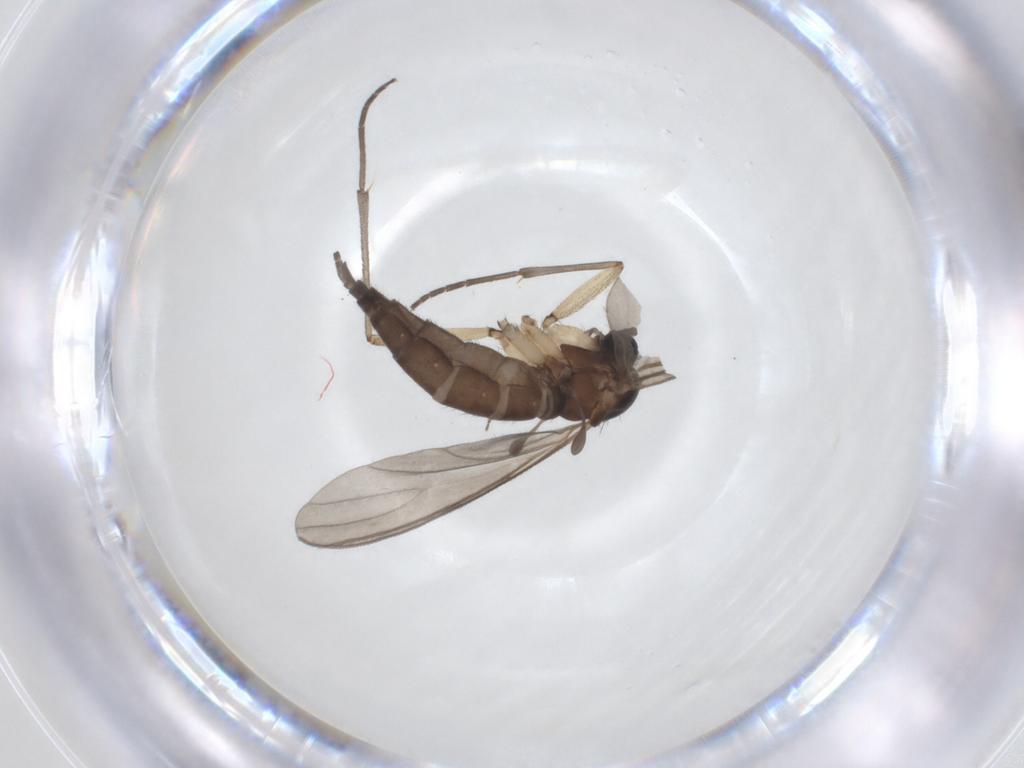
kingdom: Animalia
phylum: Arthropoda
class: Insecta
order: Diptera
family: Sciaridae
